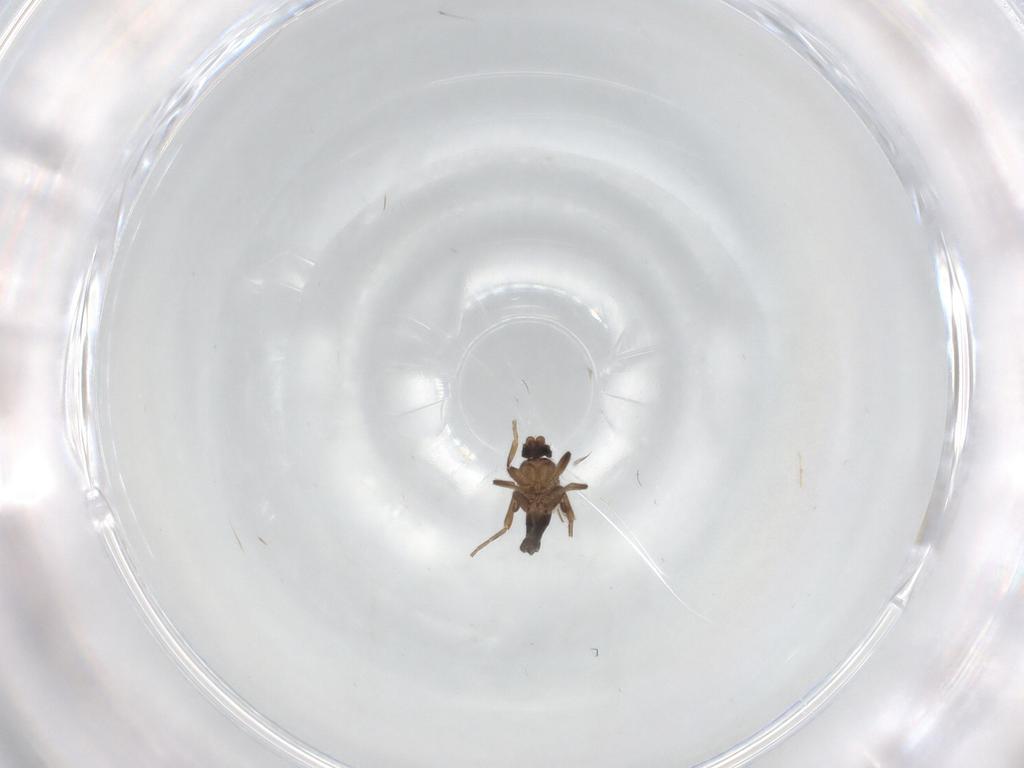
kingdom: Animalia
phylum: Arthropoda
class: Insecta
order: Diptera
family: Phoridae
